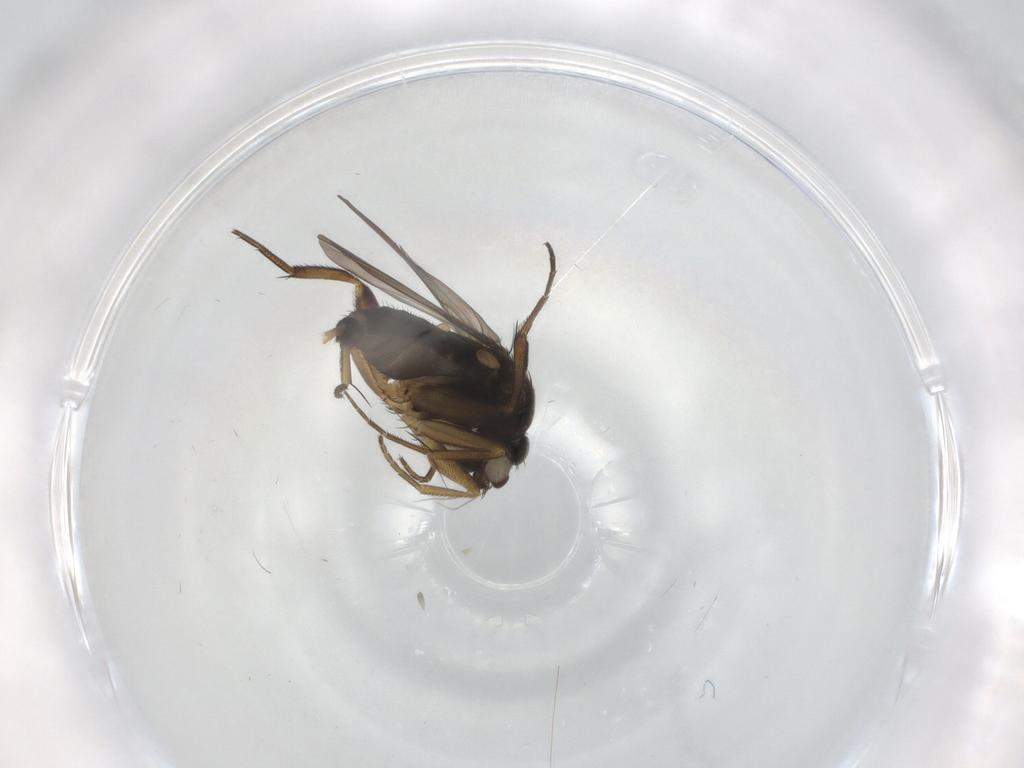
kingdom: Animalia
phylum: Arthropoda
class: Insecta
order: Diptera
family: Phoridae
